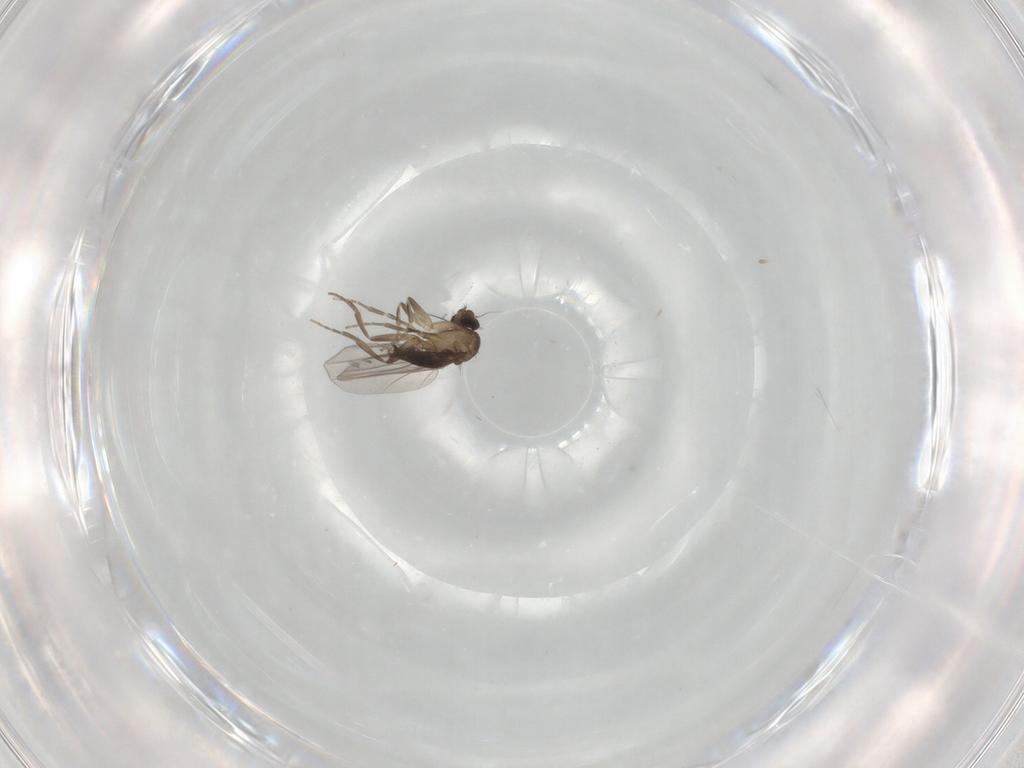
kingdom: Animalia
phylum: Arthropoda
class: Insecta
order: Diptera
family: Phoridae
